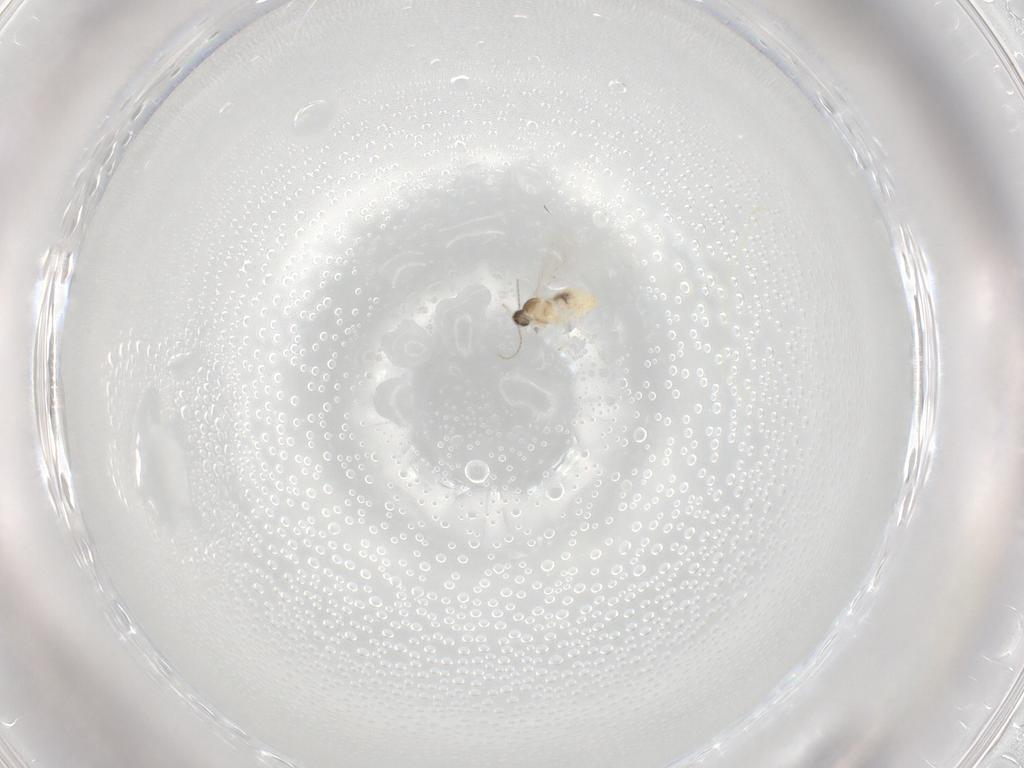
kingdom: Animalia
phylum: Arthropoda
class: Insecta
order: Diptera
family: Cecidomyiidae
